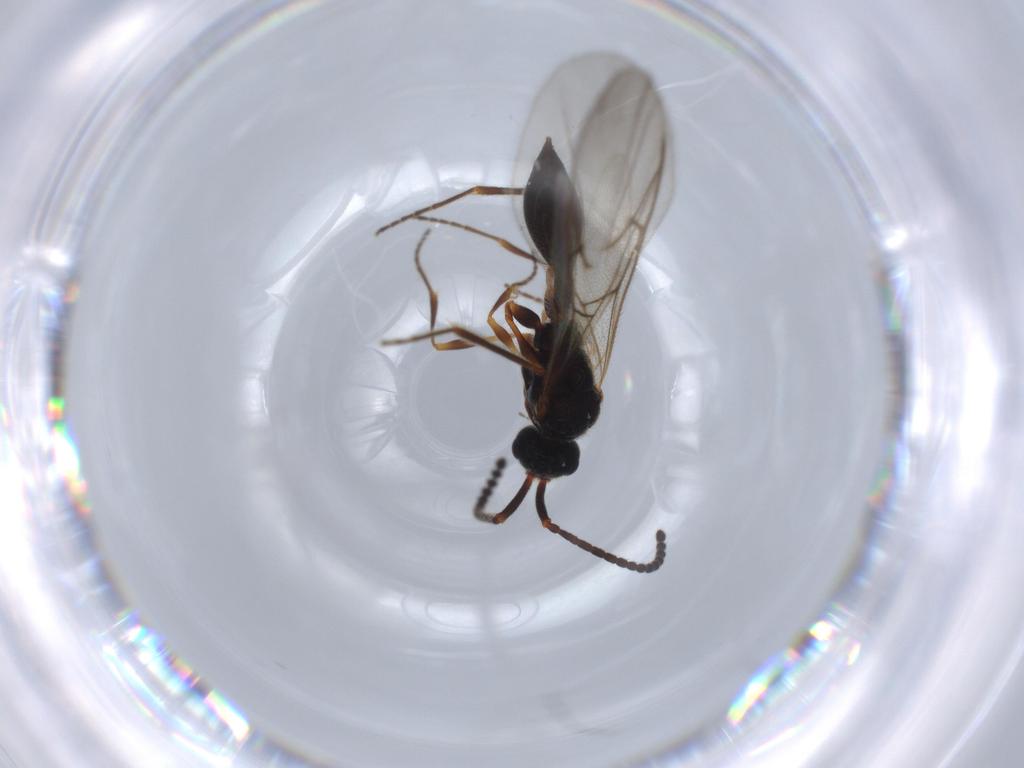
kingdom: Animalia
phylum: Arthropoda
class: Insecta
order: Hymenoptera
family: Diapriidae
